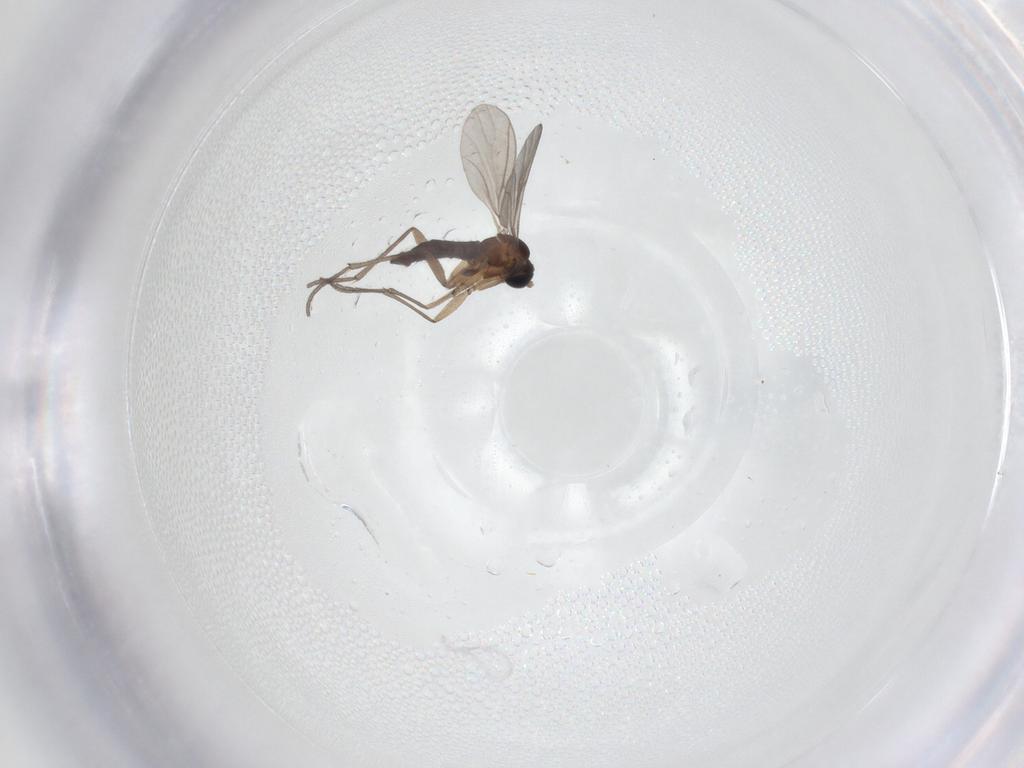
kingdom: Animalia
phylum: Arthropoda
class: Insecta
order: Diptera
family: Sciaridae
